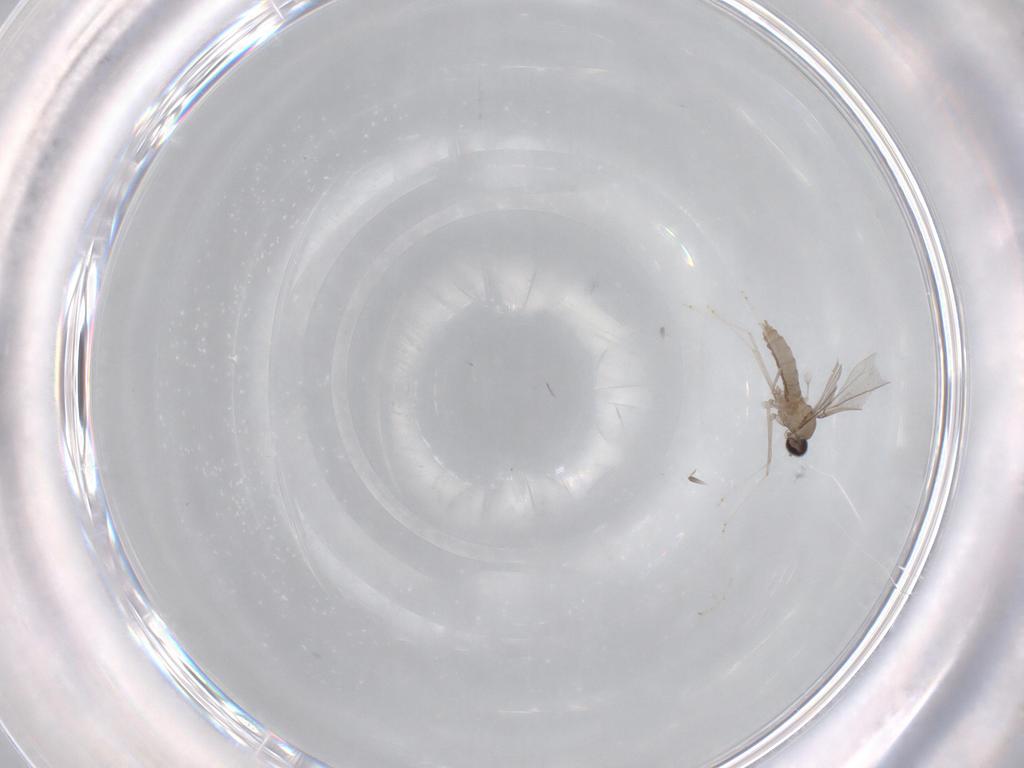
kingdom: Animalia
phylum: Arthropoda
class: Insecta
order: Diptera
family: Cecidomyiidae
